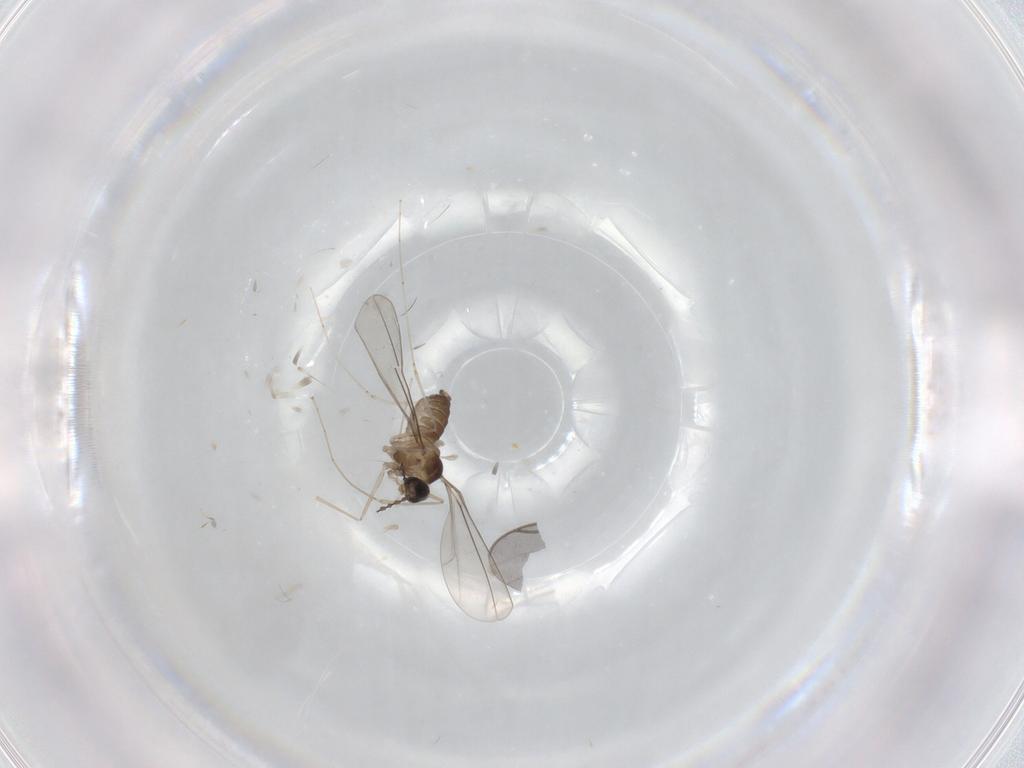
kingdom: Animalia
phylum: Arthropoda
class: Insecta
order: Diptera
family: Cecidomyiidae
